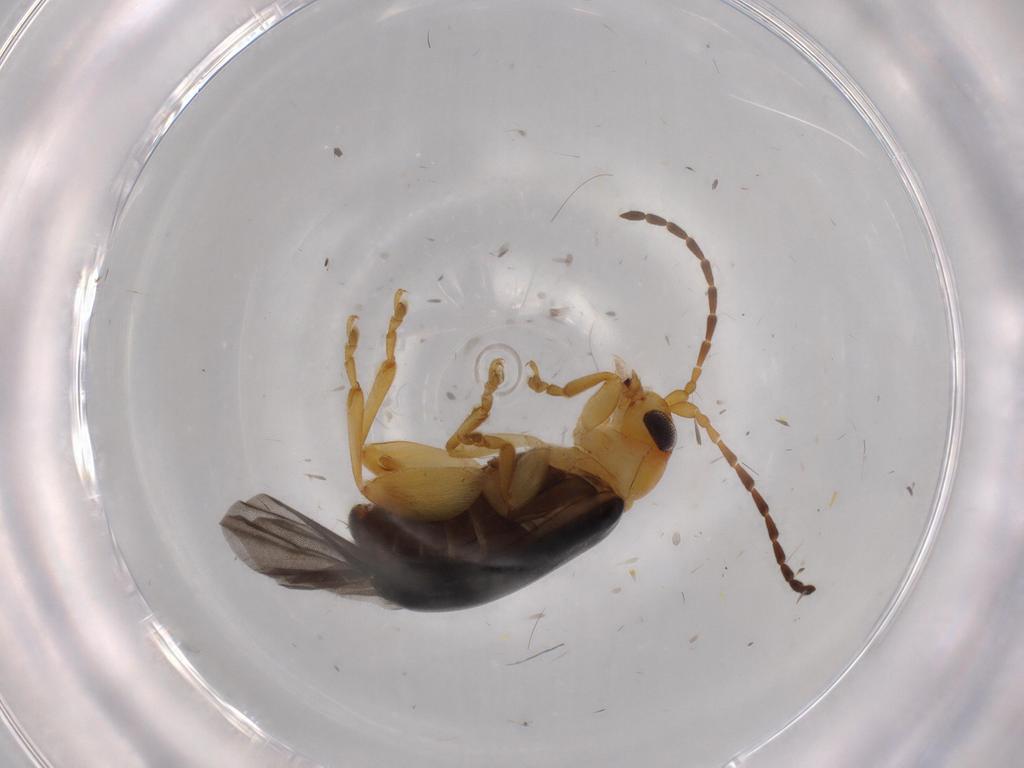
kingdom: Animalia
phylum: Arthropoda
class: Insecta
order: Coleoptera
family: Chrysomelidae
